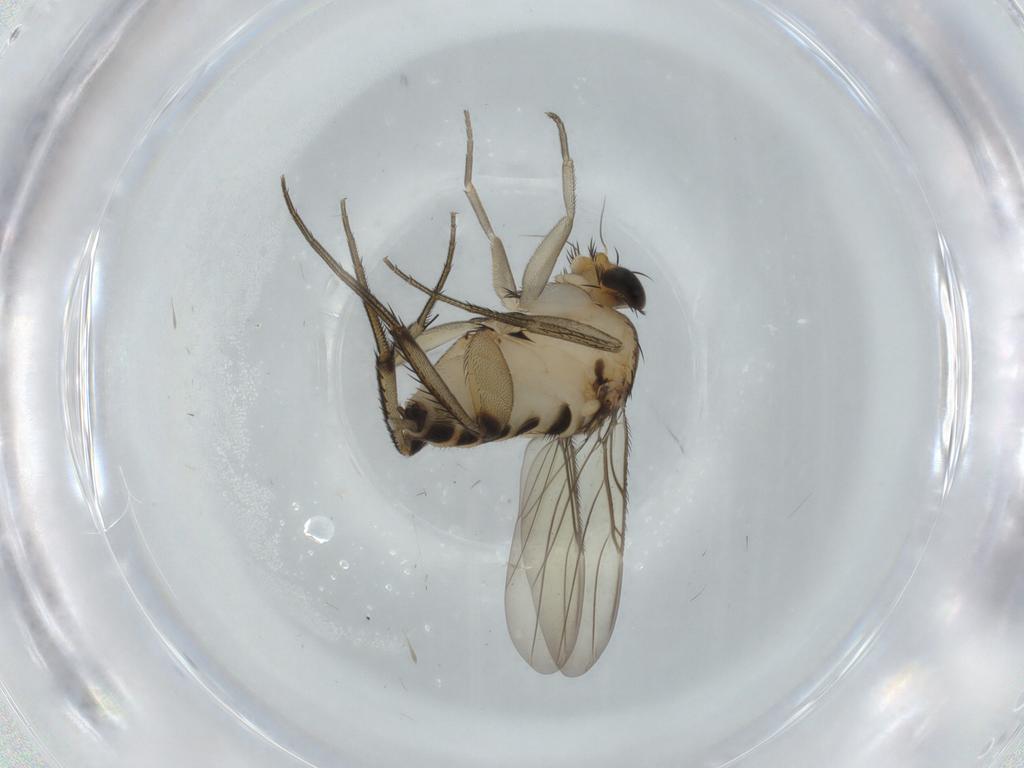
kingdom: Animalia
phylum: Arthropoda
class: Insecta
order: Diptera
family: Phoridae
